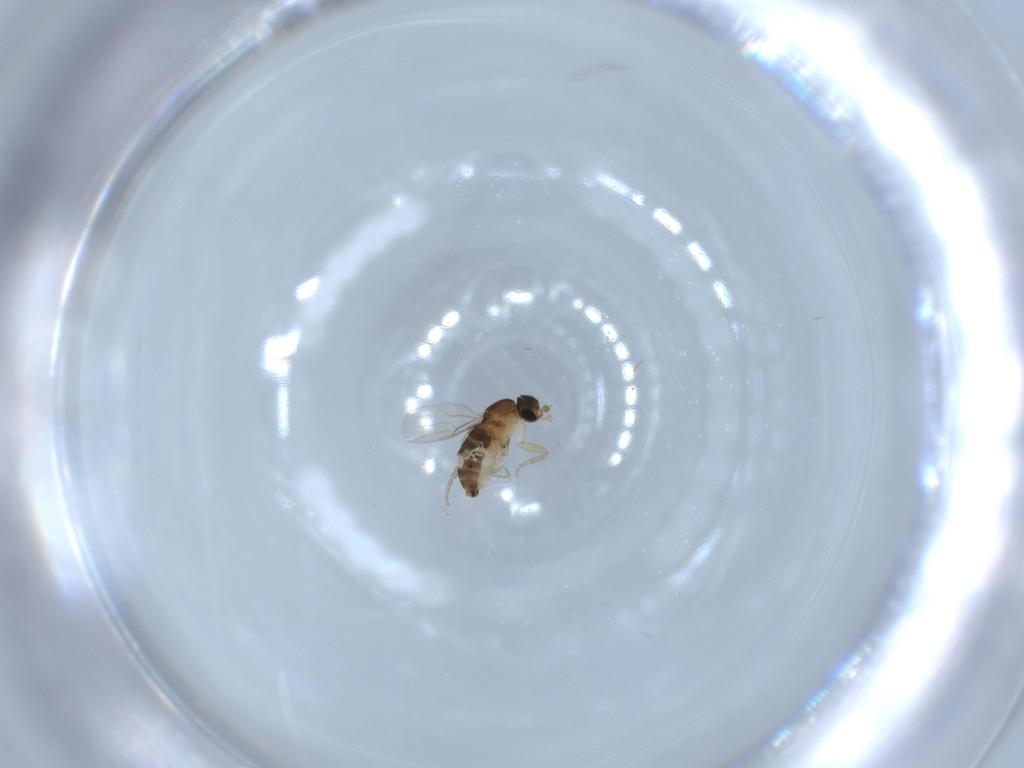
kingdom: Animalia
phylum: Arthropoda
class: Insecta
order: Diptera
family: Phoridae
